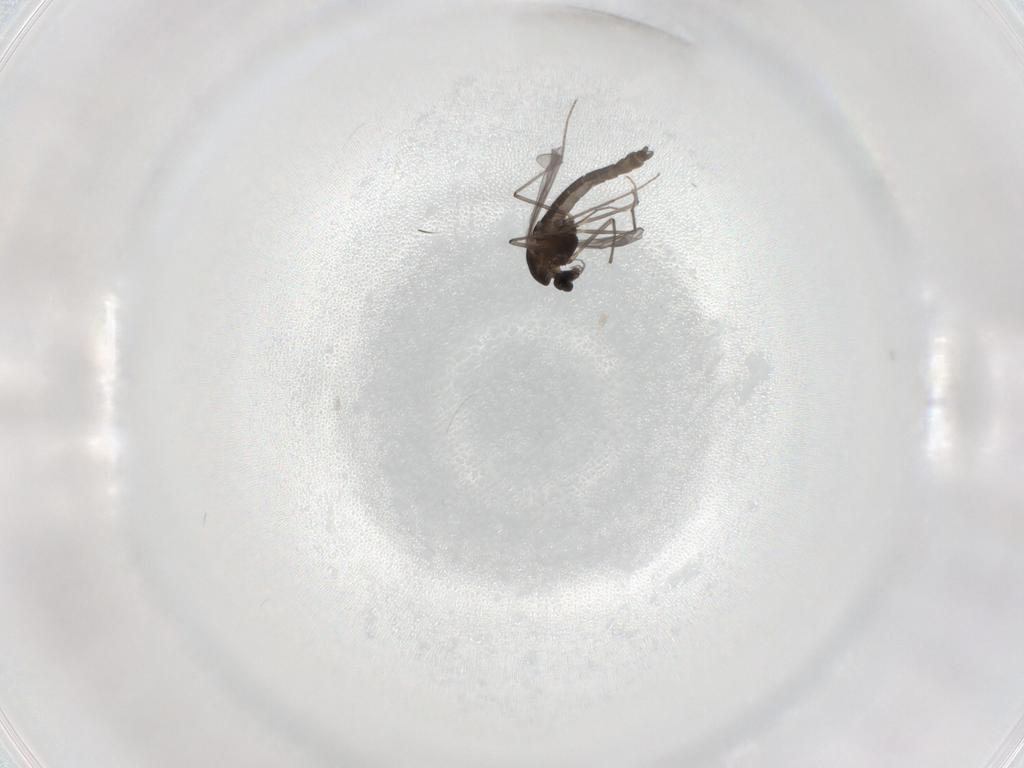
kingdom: Animalia
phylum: Arthropoda
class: Insecta
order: Diptera
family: Chironomidae
